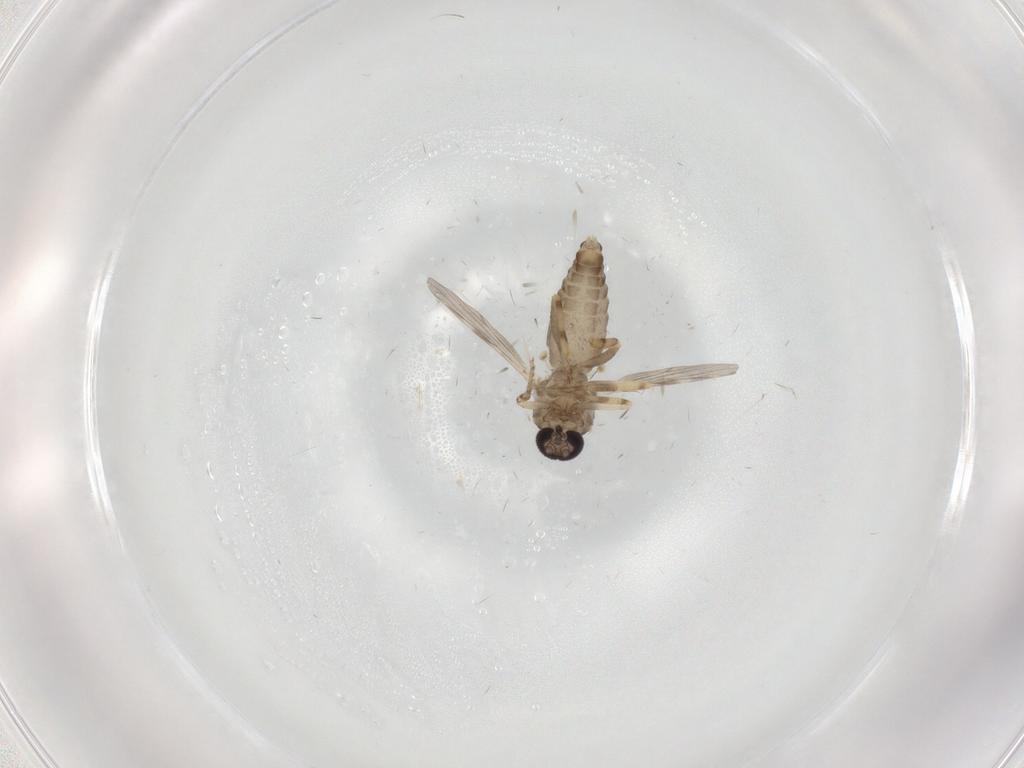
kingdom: Animalia
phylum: Arthropoda
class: Insecta
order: Diptera
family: Ceratopogonidae
